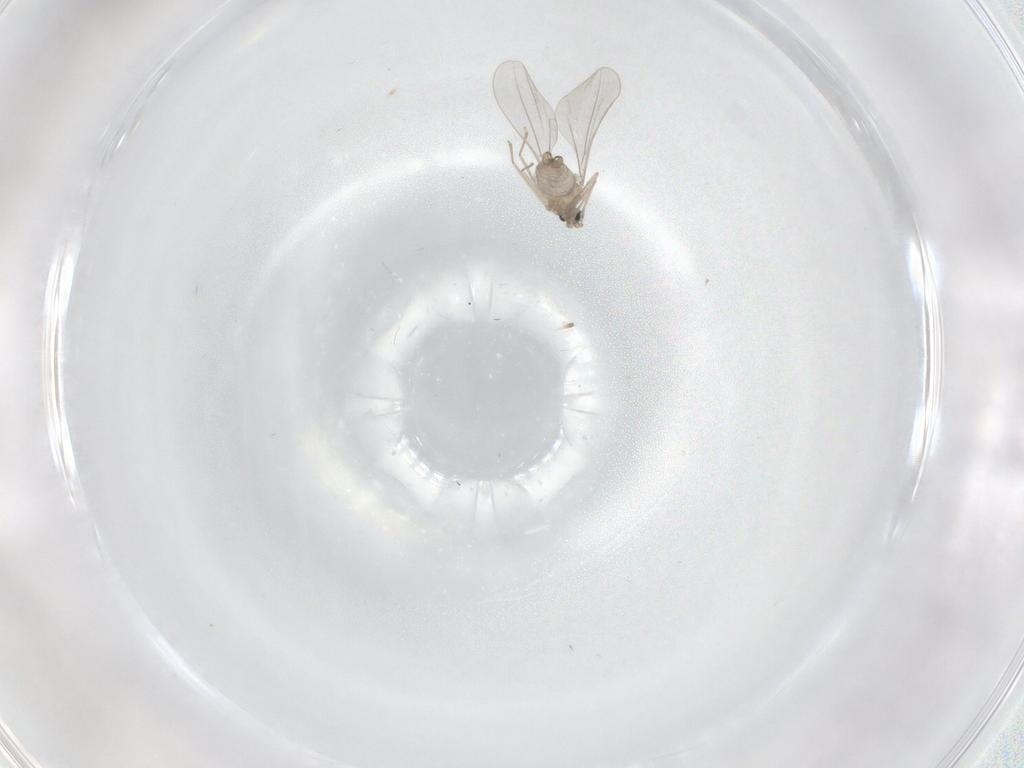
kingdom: Animalia
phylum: Arthropoda
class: Insecta
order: Diptera
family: Cecidomyiidae
